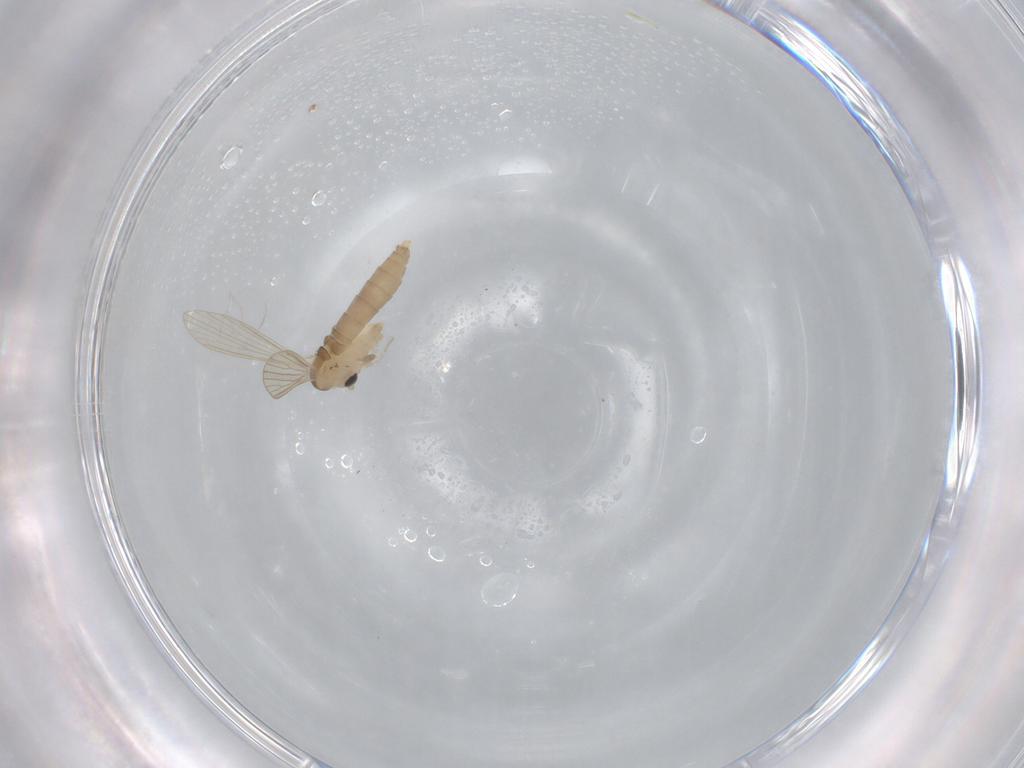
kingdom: Animalia
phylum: Arthropoda
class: Insecta
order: Diptera
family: Psychodidae
